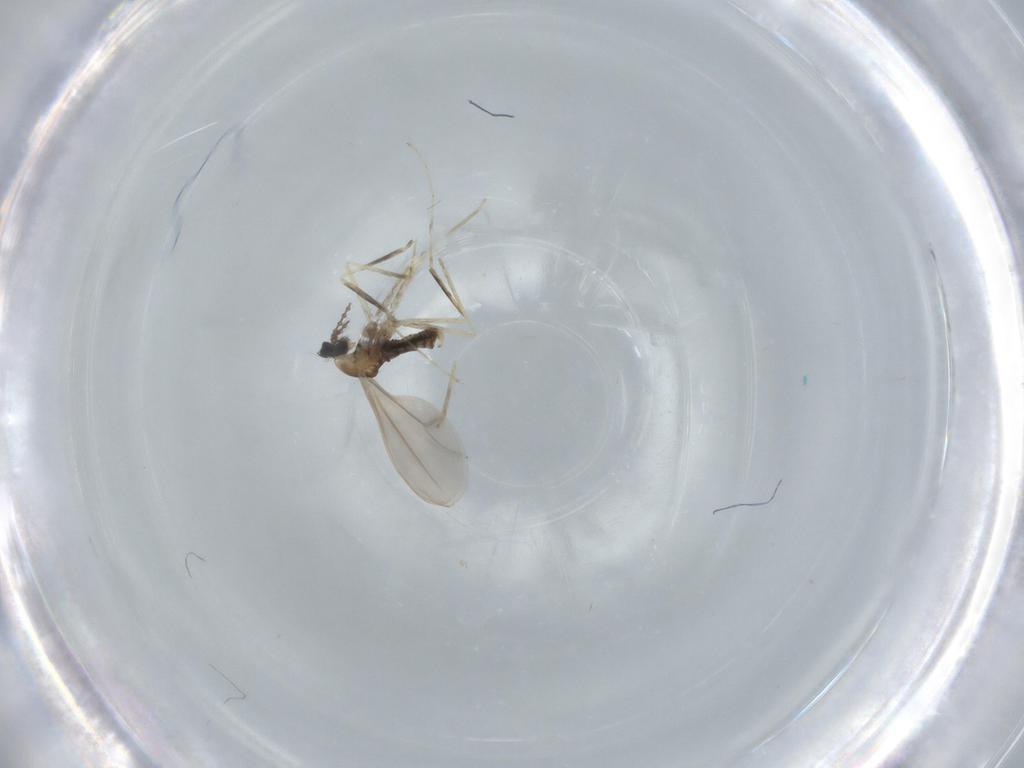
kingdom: Animalia
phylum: Arthropoda
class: Insecta
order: Diptera
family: Cecidomyiidae
